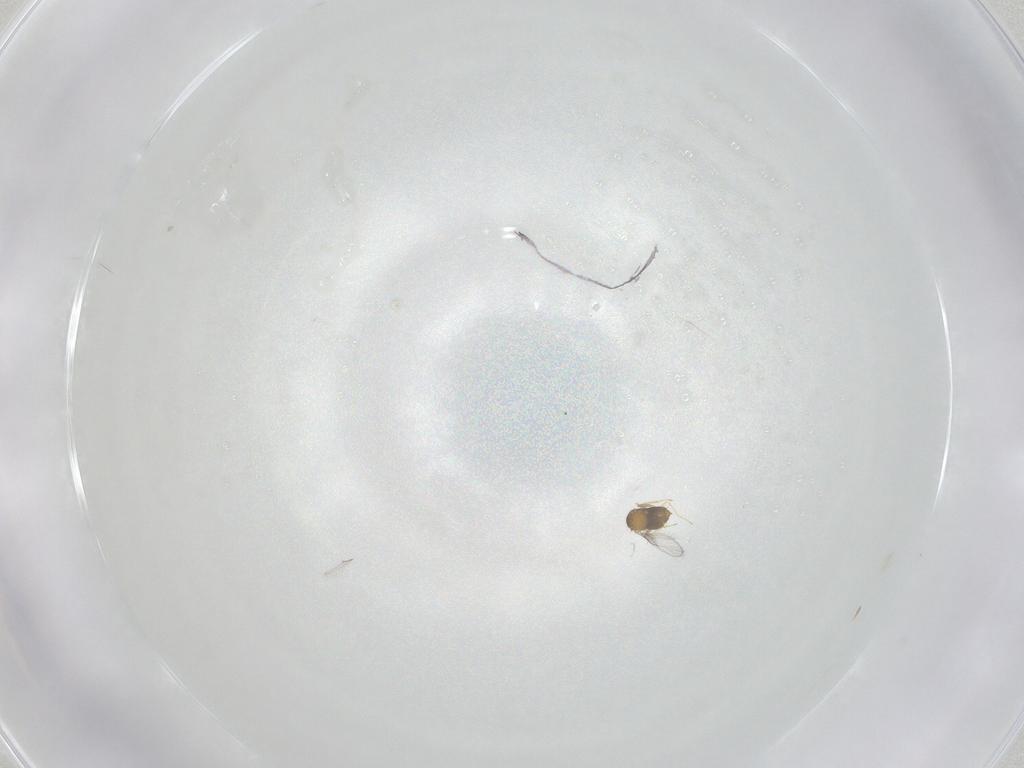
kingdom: Animalia
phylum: Arthropoda
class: Insecta
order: Hymenoptera
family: Trichogrammatidae
